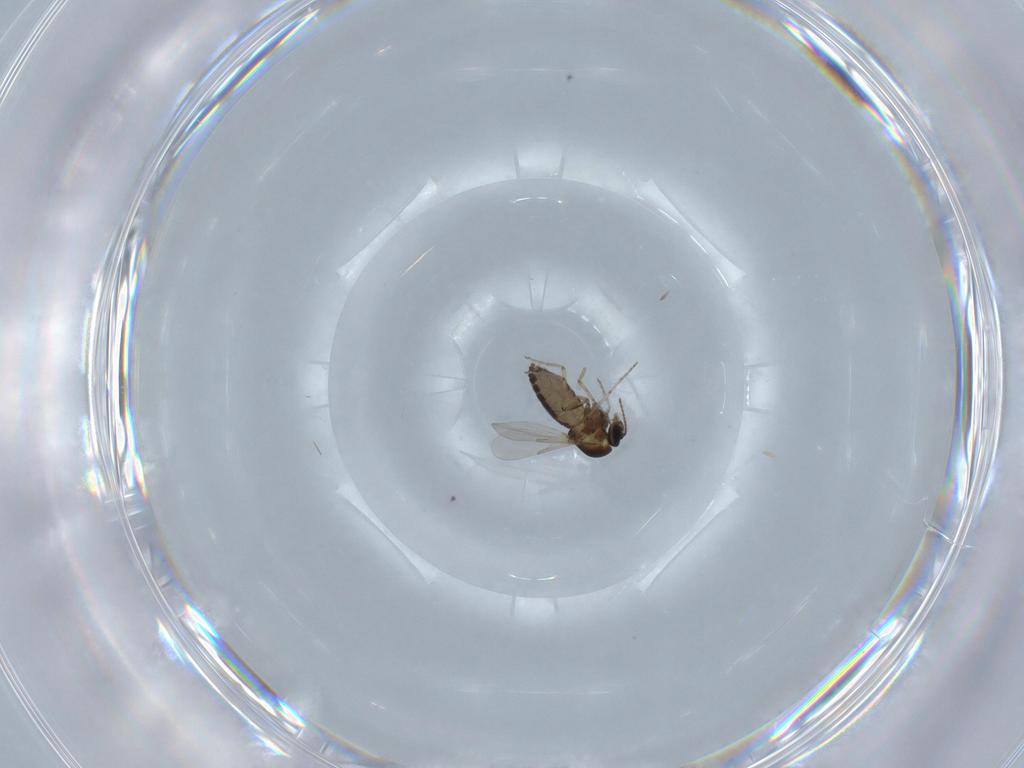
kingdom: Animalia
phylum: Arthropoda
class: Insecta
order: Diptera
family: Ceratopogonidae
